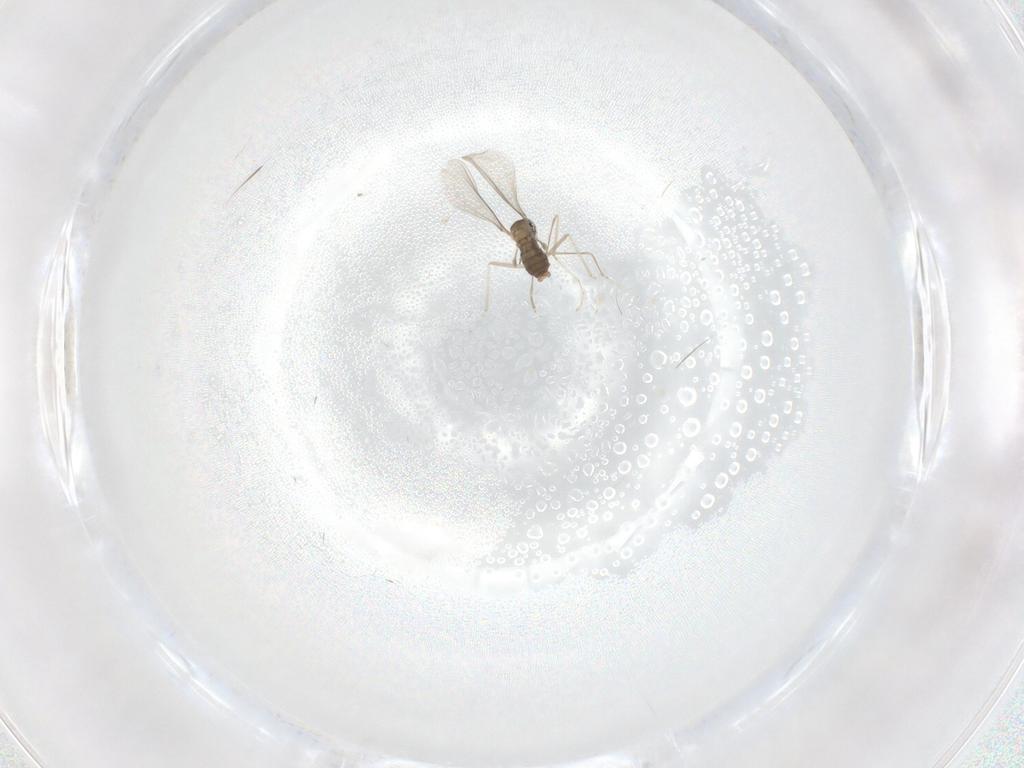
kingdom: Animalia
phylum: Arthropoda
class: Insecta
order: Diptera
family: Cecidomyiidae
